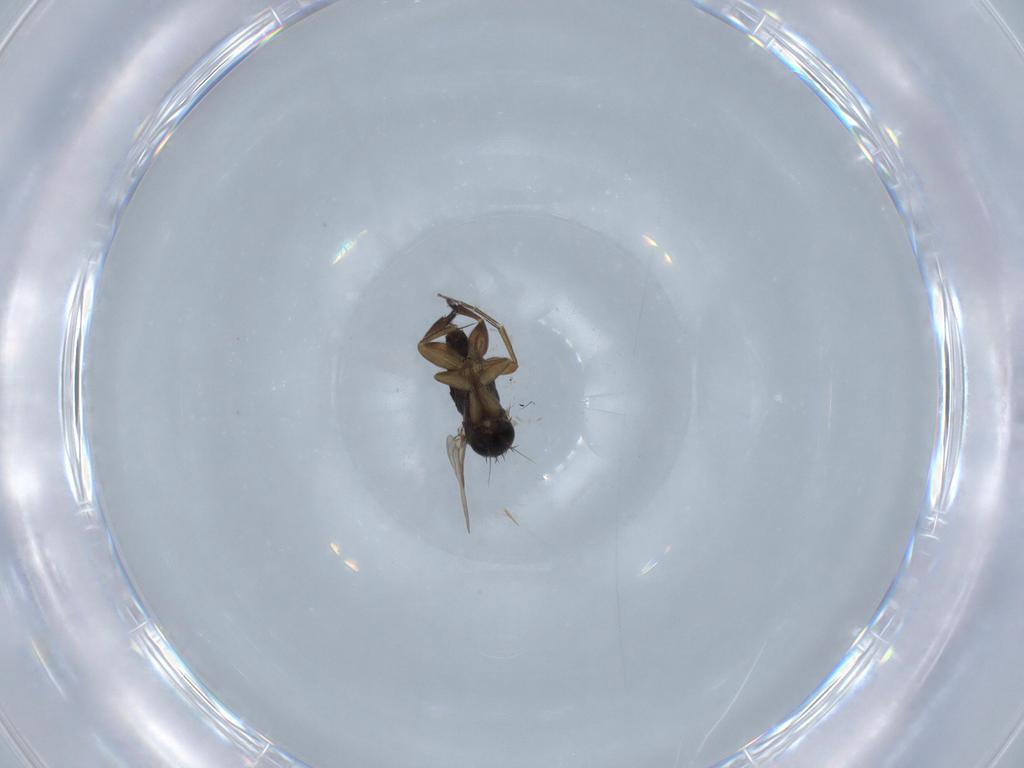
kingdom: Animalia
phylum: Arthropoda
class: Insecta
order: Diptera
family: Phoridae
